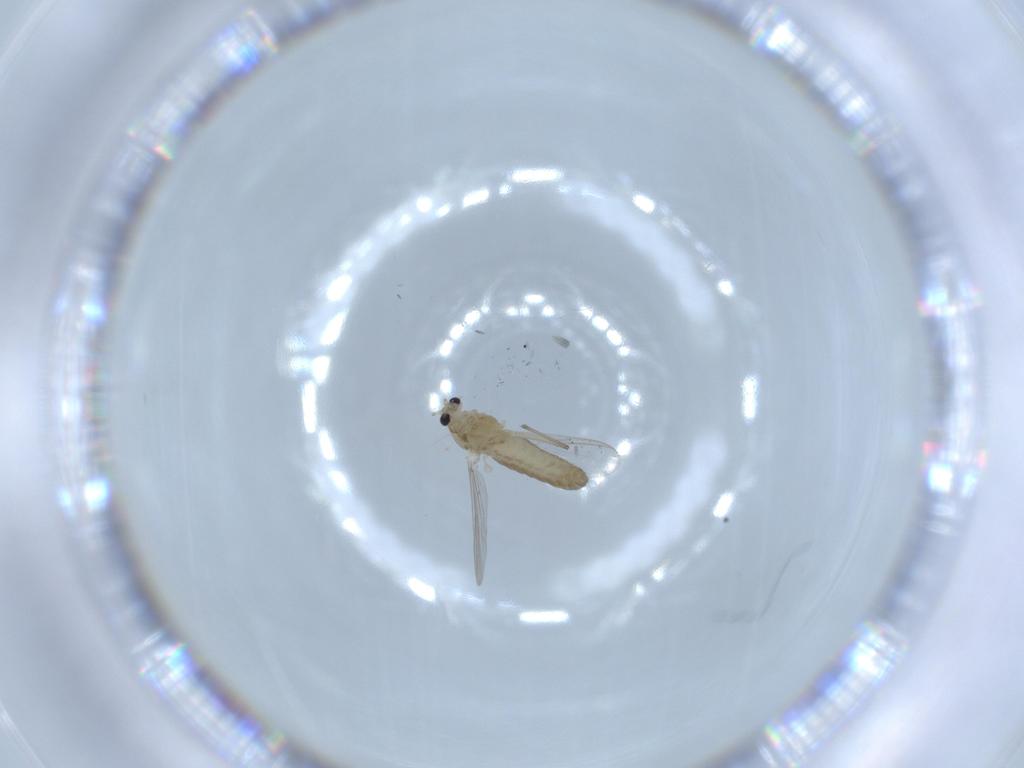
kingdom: Animalia
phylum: Arthropoda
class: Insecta
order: Diptera
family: Chironomidae
